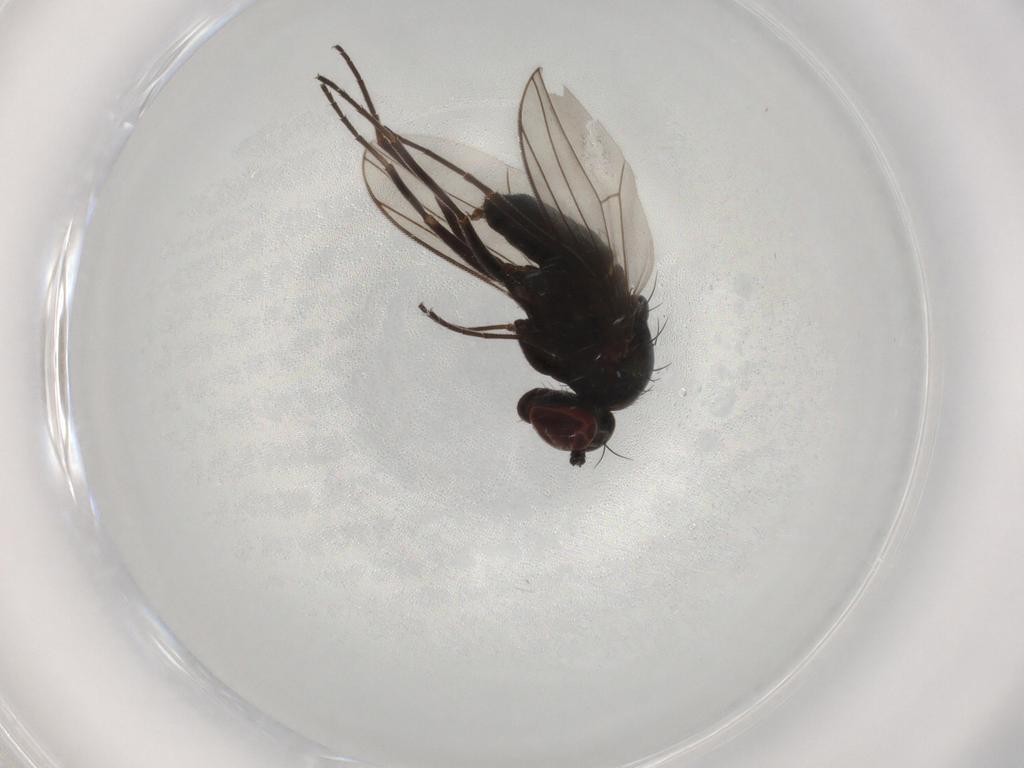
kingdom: Animalia
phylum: Arthropoda
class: Insecta
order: Diptera
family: Dolichopodidae
